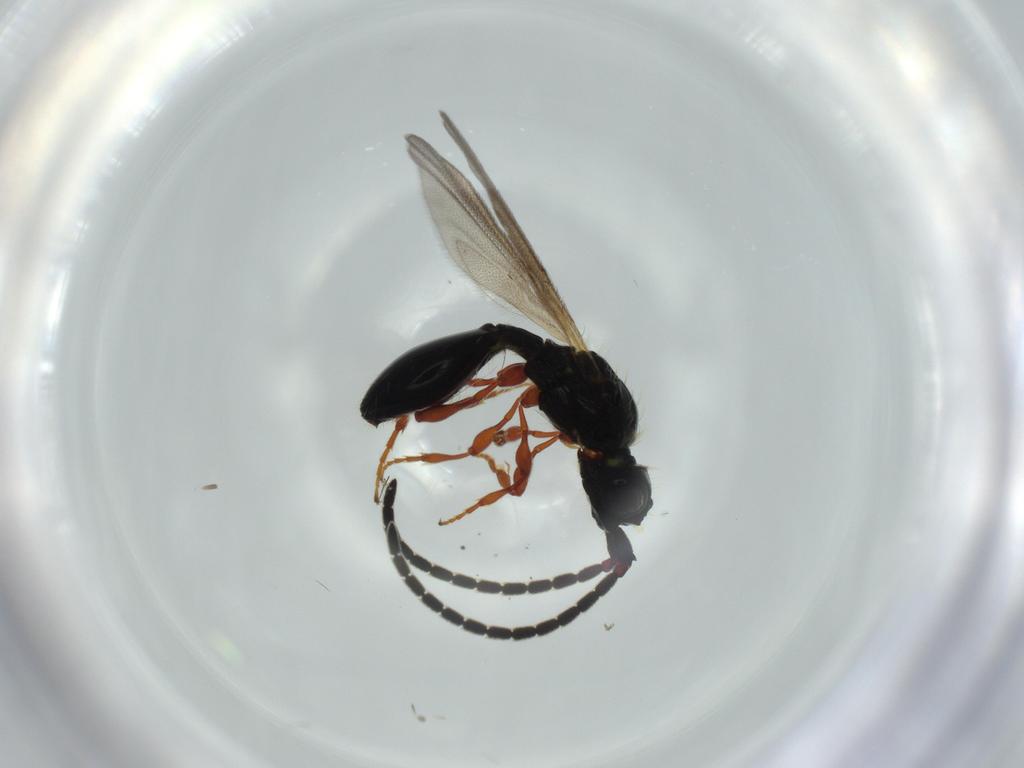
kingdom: Animalia
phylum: Arthropoda
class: Insecta
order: Hymenoptera
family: Diapriidae
